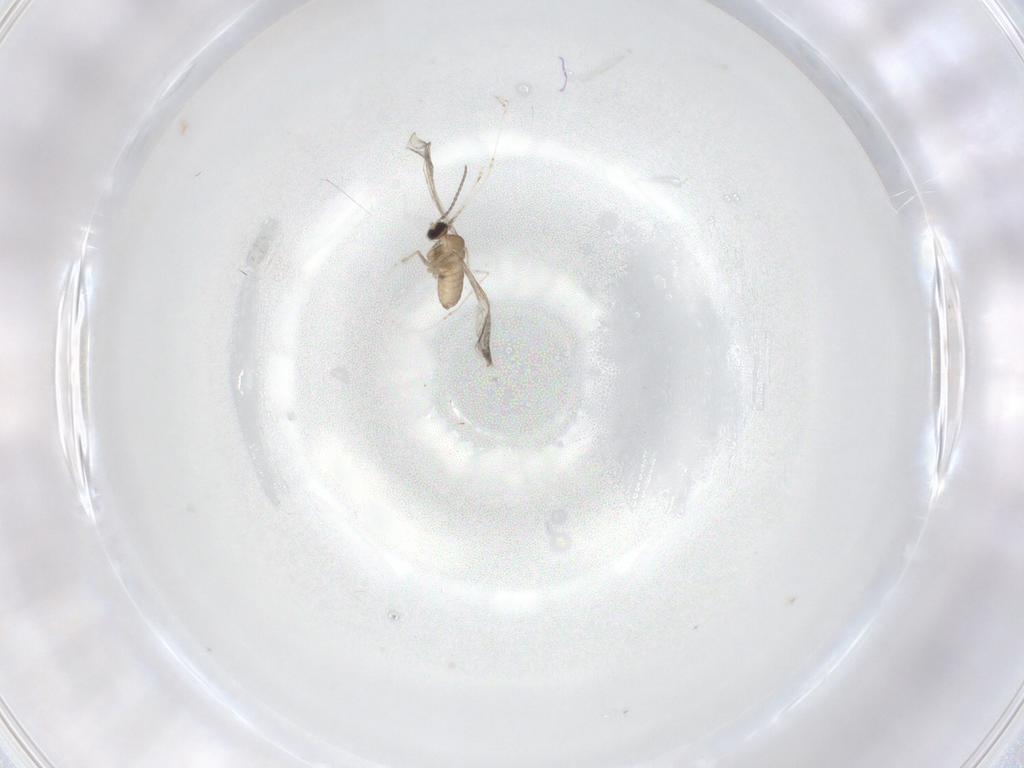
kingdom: Animalia
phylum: Arthropoda
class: Insecta
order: Diptera
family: Cecidomyiidae
